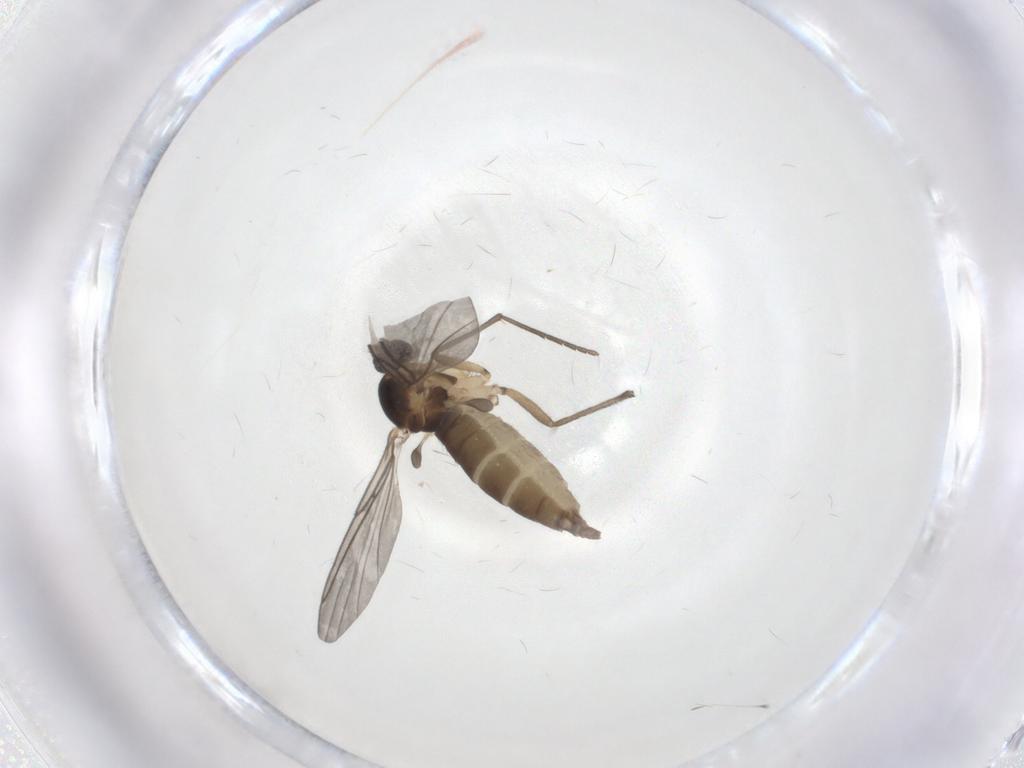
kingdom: Animalia
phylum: Arthropoda
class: Insecta
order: Diptera
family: Sciaridae
